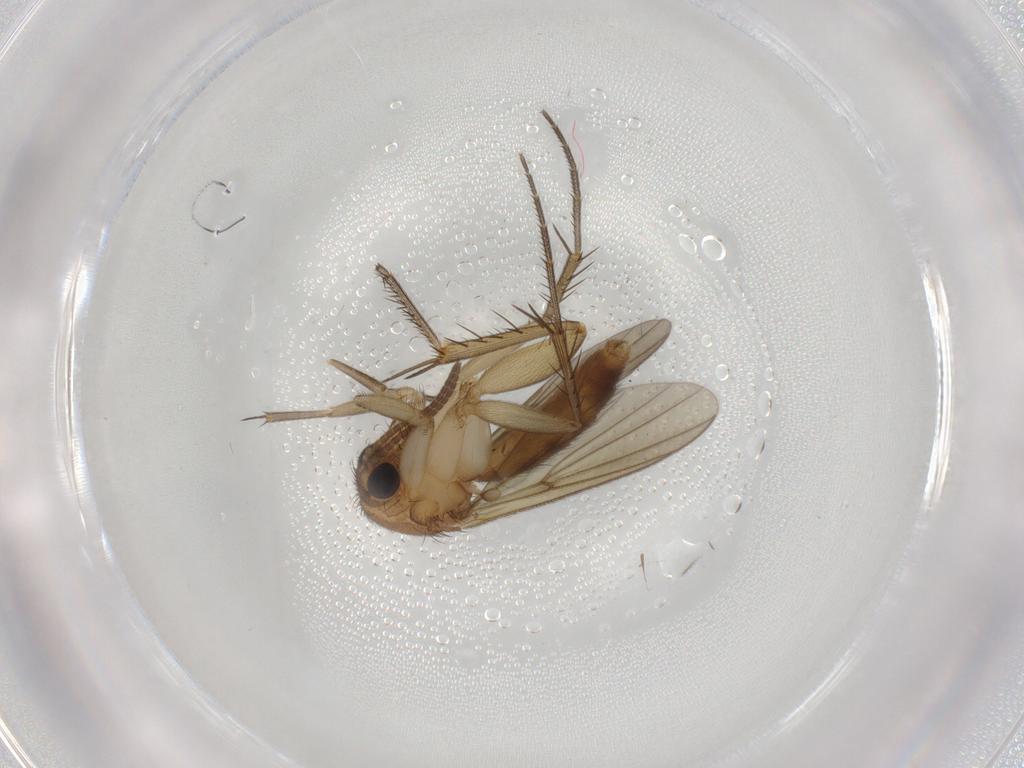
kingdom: Animalia
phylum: Arthropoda
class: Insecta
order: Diptera
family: Mycetophilidae
